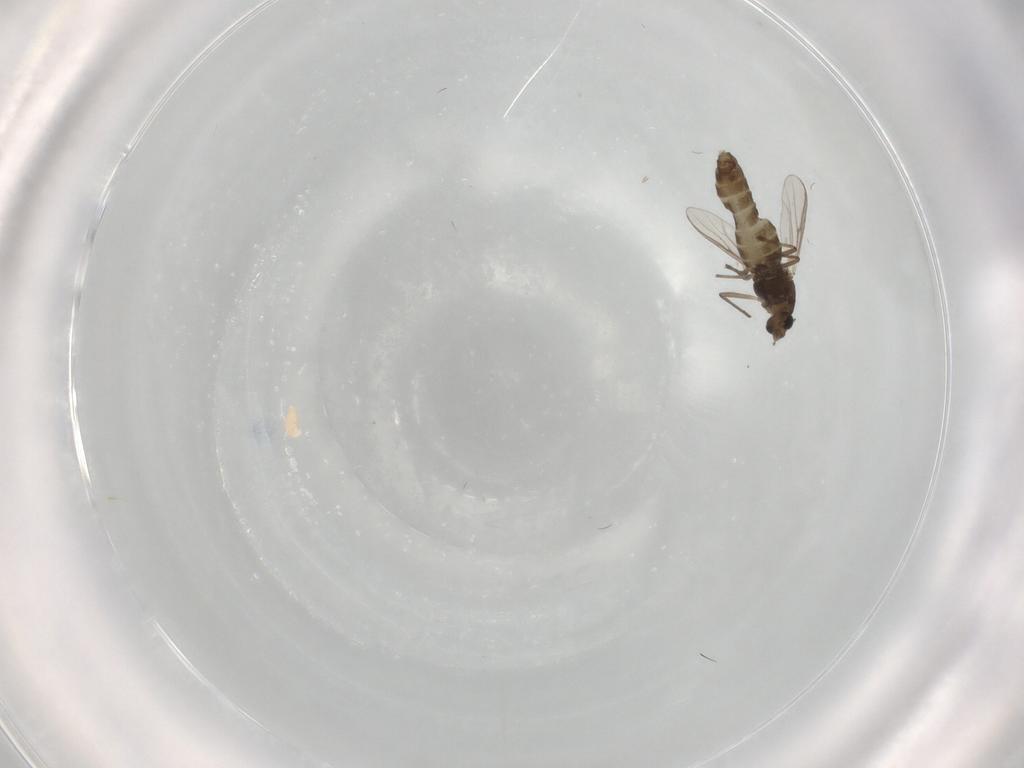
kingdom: Animalia
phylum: Arthropoda
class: Insecta
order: Diptera
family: Chironomidae
